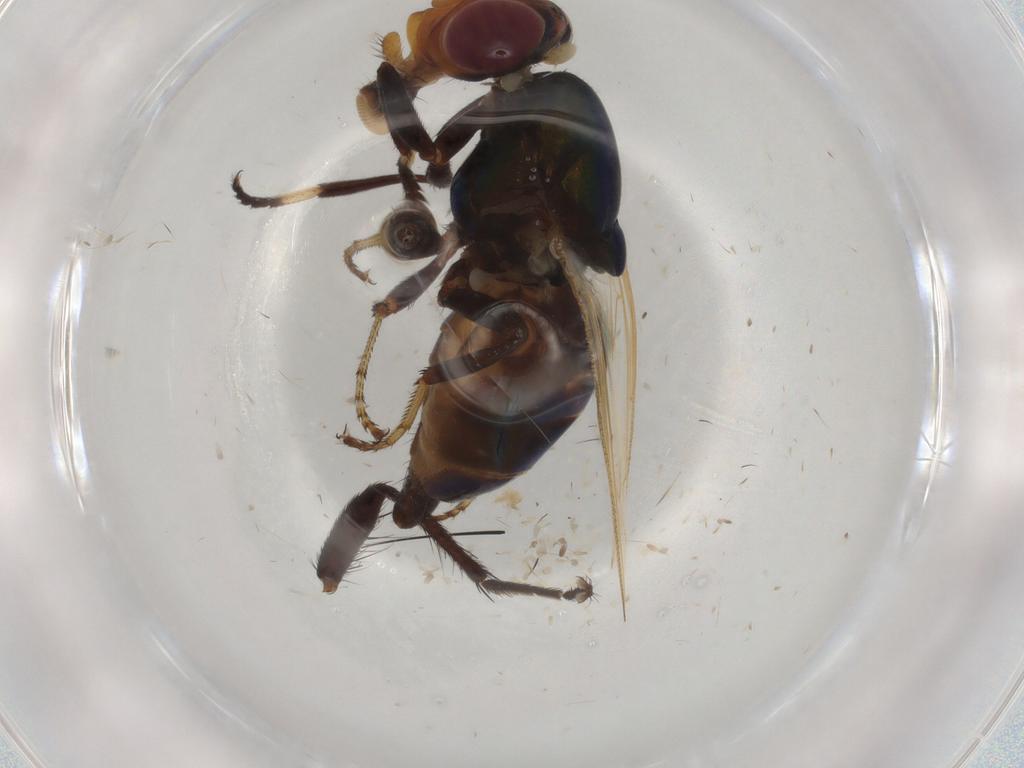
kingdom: Animalia
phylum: Arthropoda
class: Insecta
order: Diptera
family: Ulidiidae
